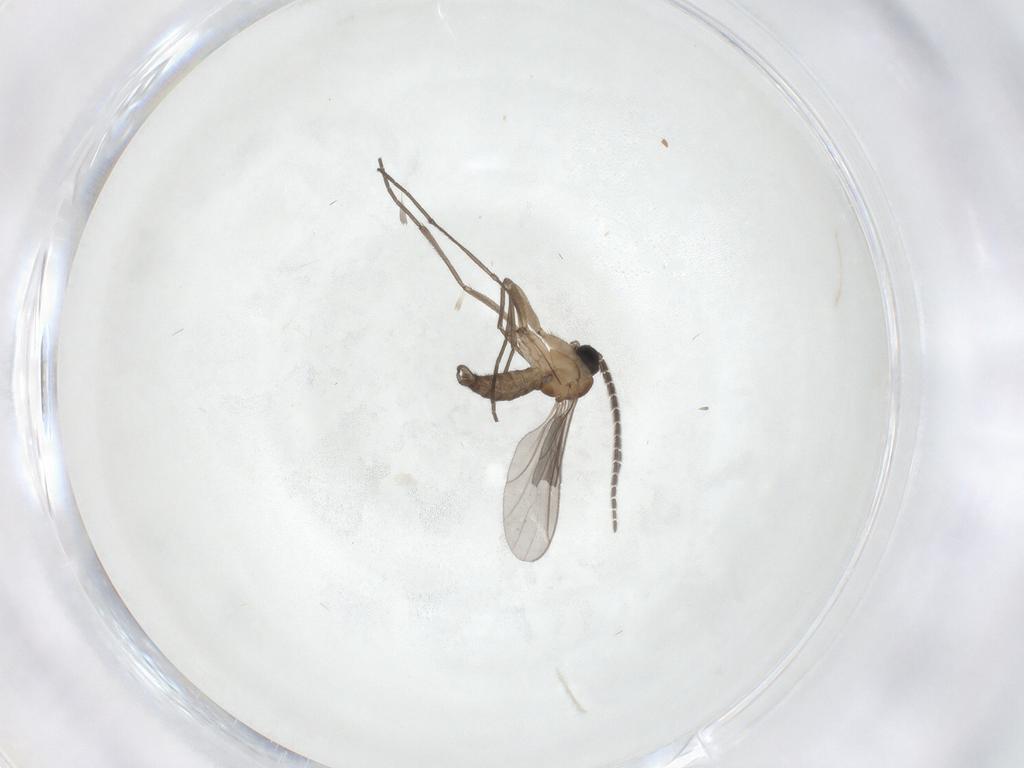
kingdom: Animalia
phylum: Arthropoda
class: Insecta
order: Diptera
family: Sciaridae
